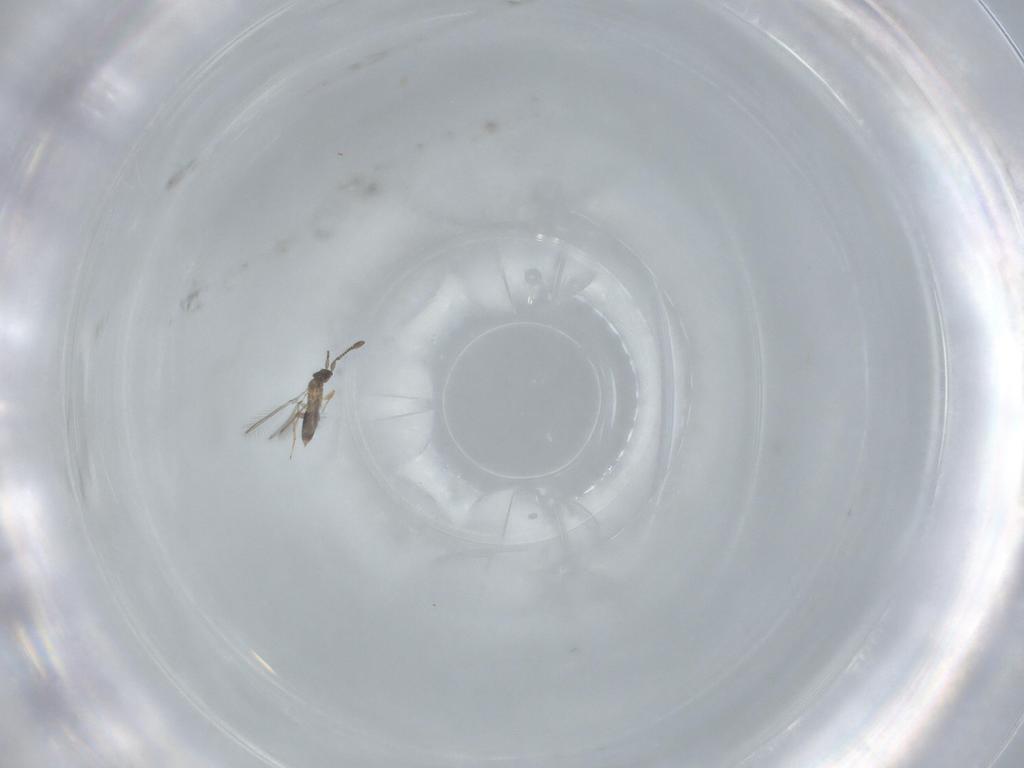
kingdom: Animalia
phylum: Arthropoda
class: Insecta
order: Hymenoptera
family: Mymaridae
